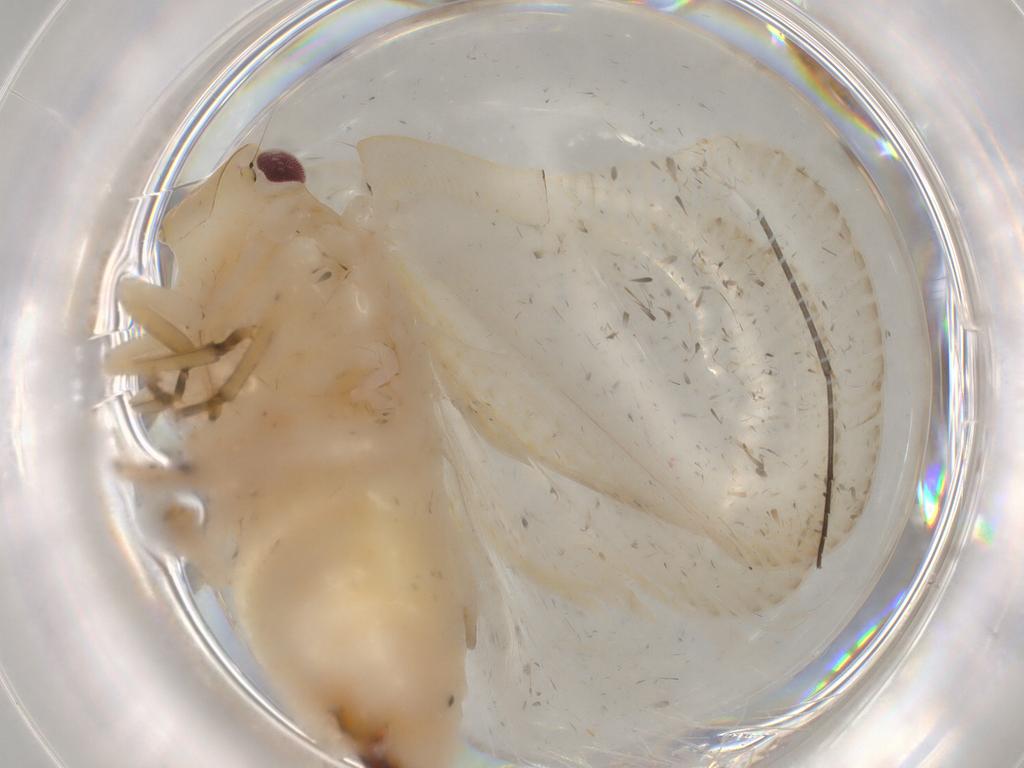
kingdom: Animalia
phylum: Arthropoda
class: Insecta
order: Hemiptera
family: Flatidae
